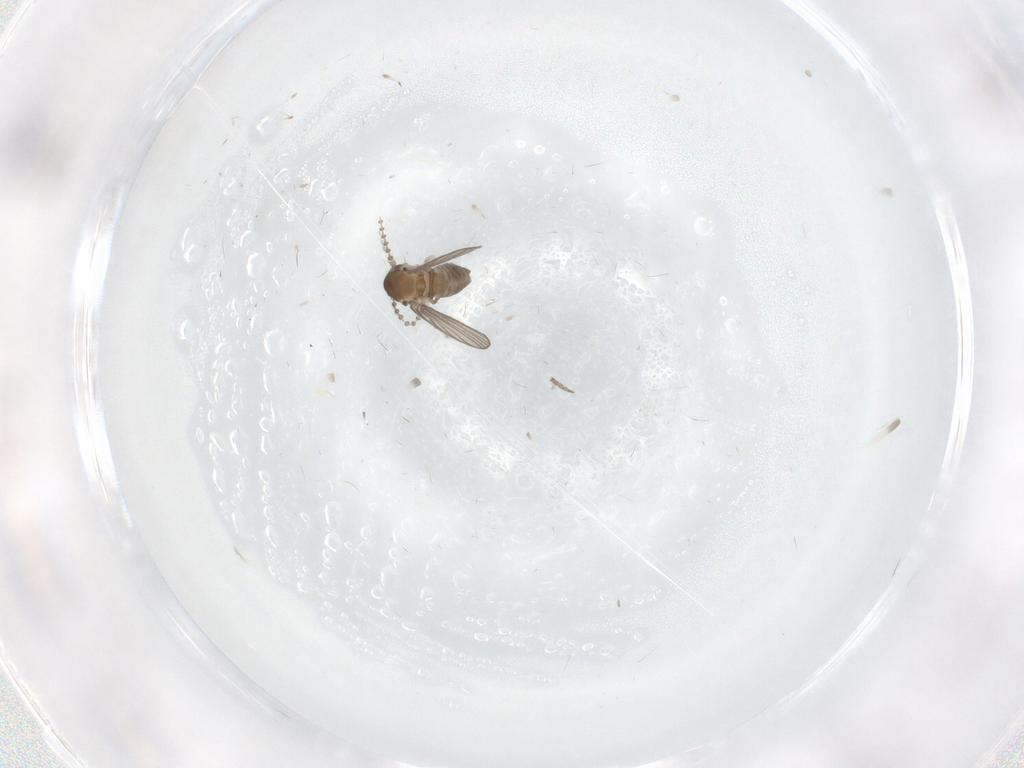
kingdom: Animalia
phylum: Arthropoda
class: Insecta
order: Diptera
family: Psychodidae
